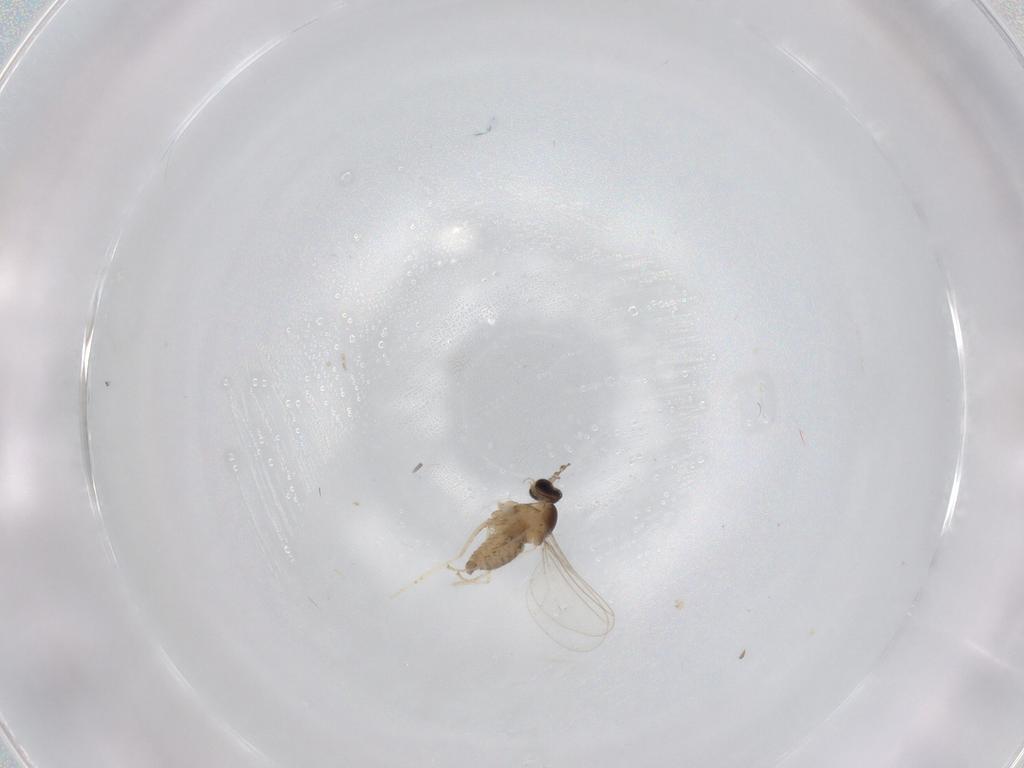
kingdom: Animalia
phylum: Arthropoda
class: Insecta
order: Diptera
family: Cecidomyiidae
